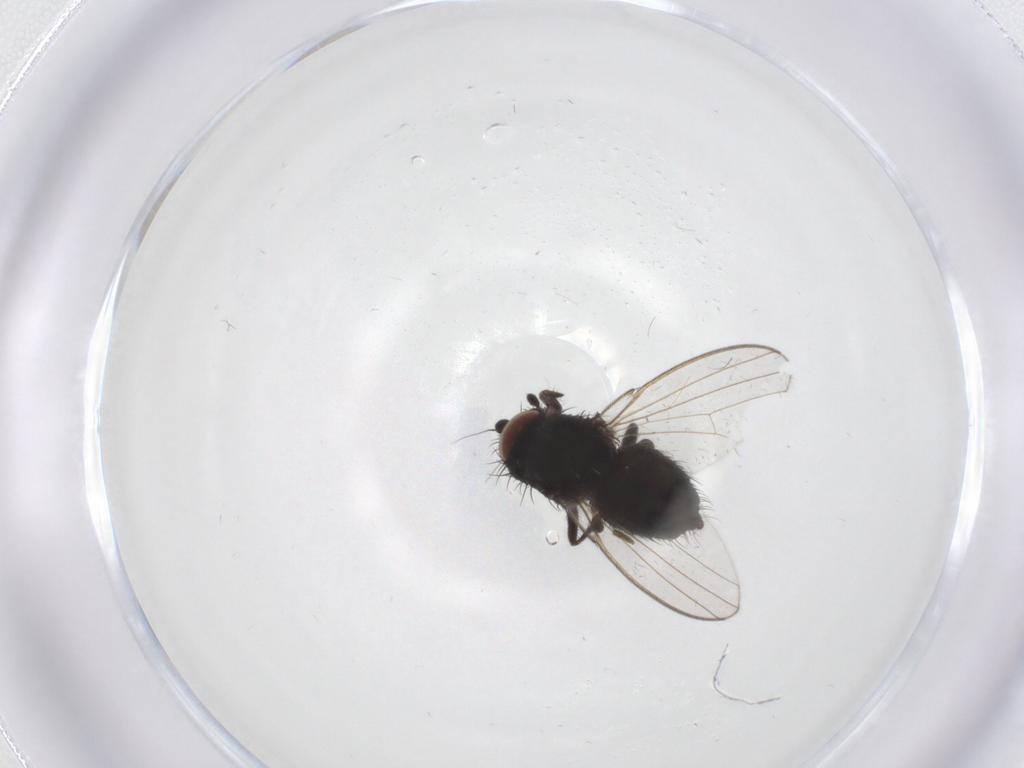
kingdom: Animalia
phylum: Arthropoda
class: Insecta
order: Diptera
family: Milichiidae
